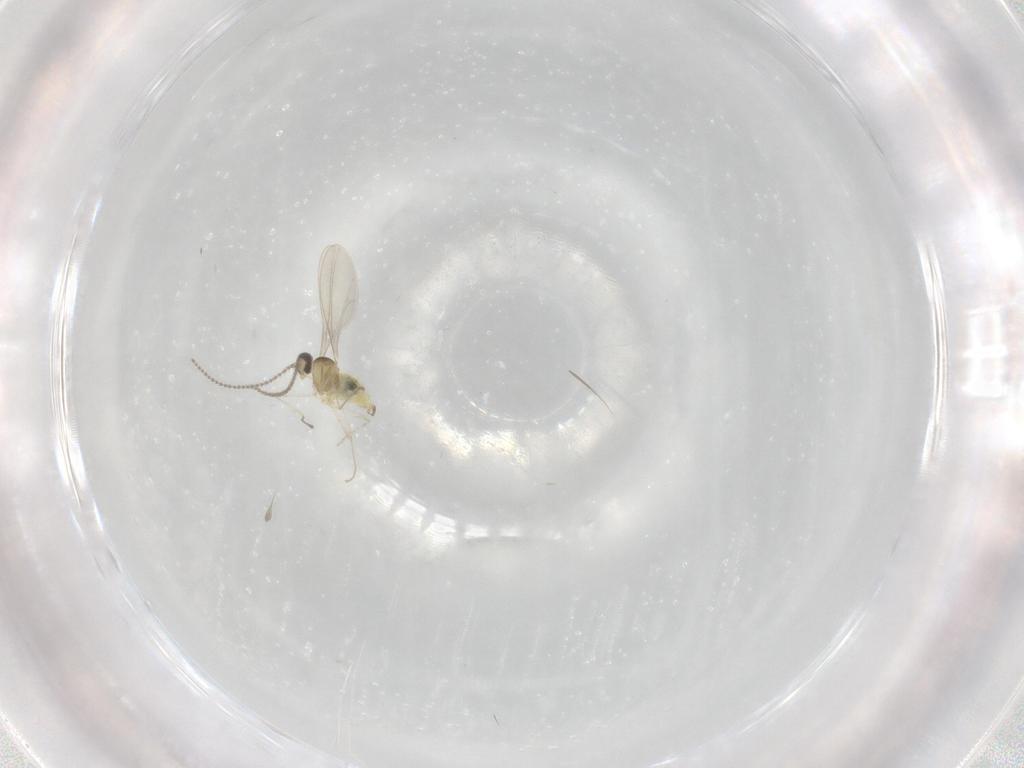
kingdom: Animalia
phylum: Arthropoda
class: Insecta
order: Diptera
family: Cecidomyiidae
